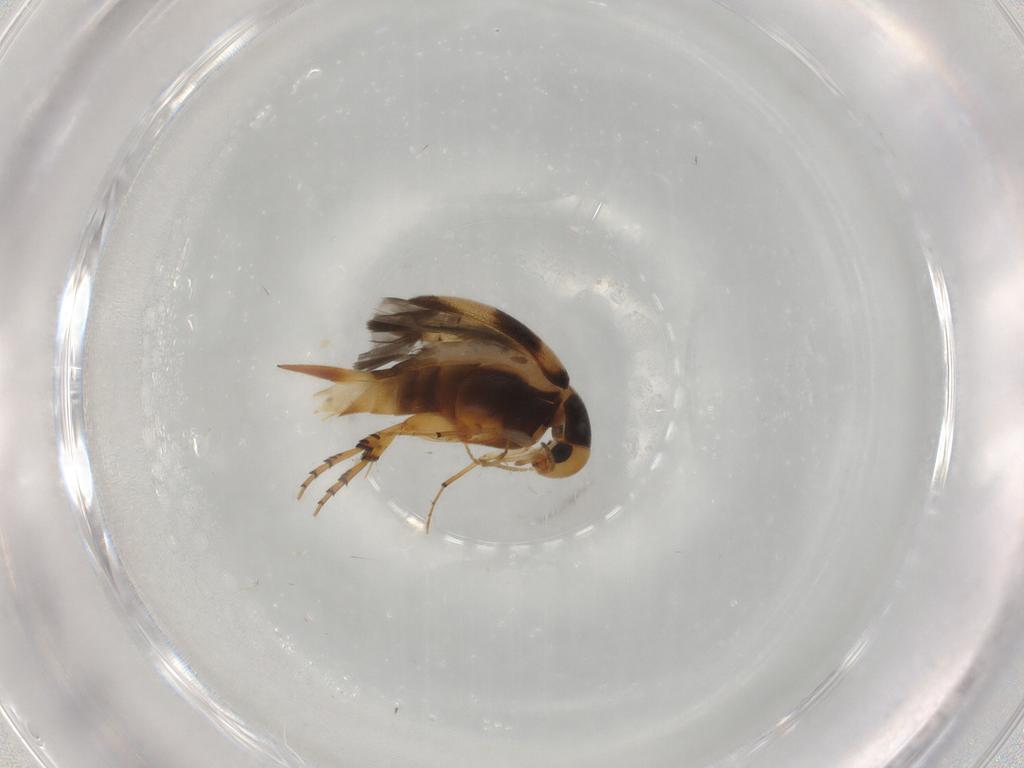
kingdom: Animalia
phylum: Arthropoda
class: Insecta
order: Coleoptera
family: Mordellidae
